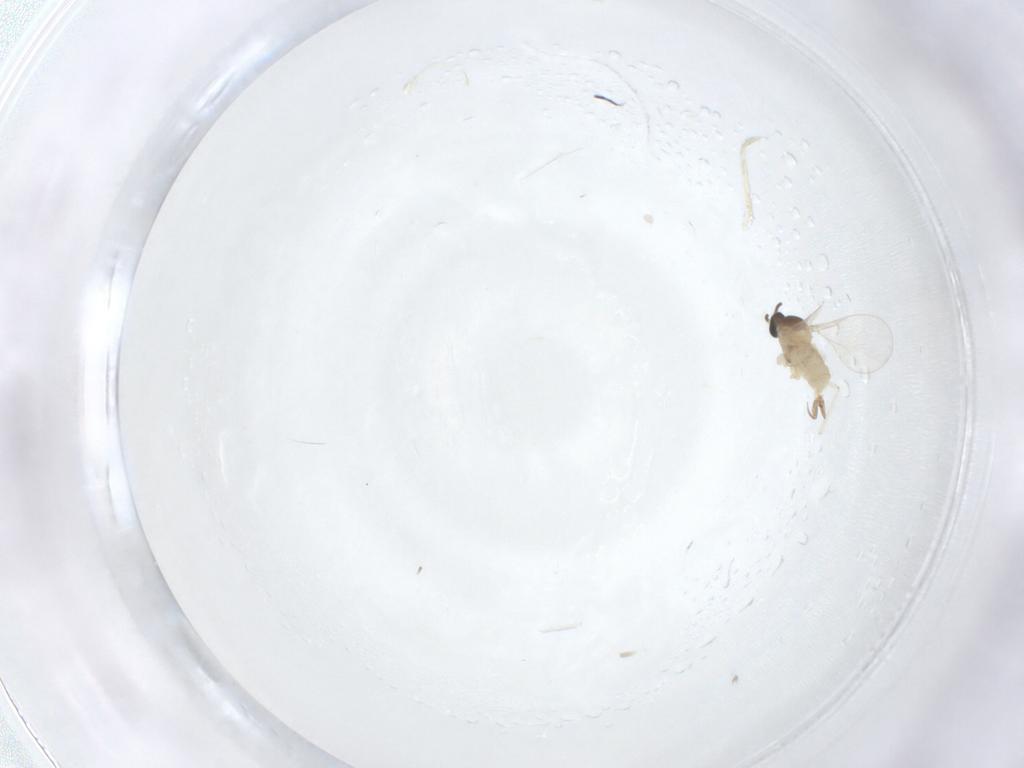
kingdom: Animalia
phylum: Arthropoda
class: Insecta
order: Diptera
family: Cecidomyiidae
